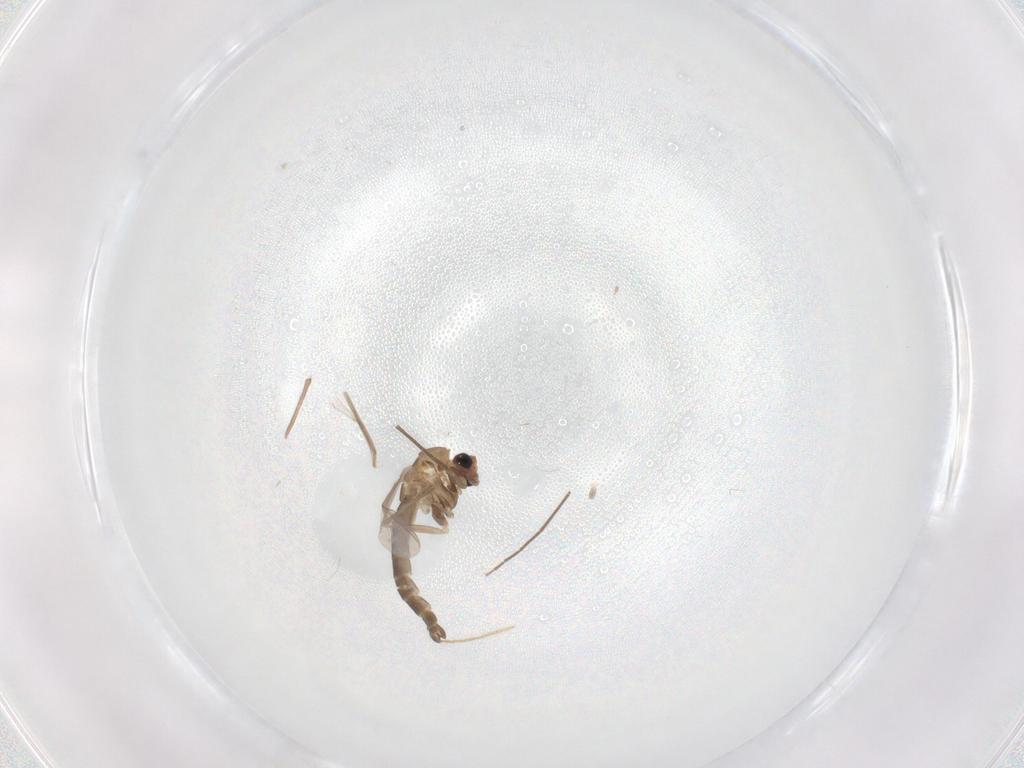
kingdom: Animalia
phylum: Arthropoda
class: Insecta
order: Diptera
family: Chironomidae
